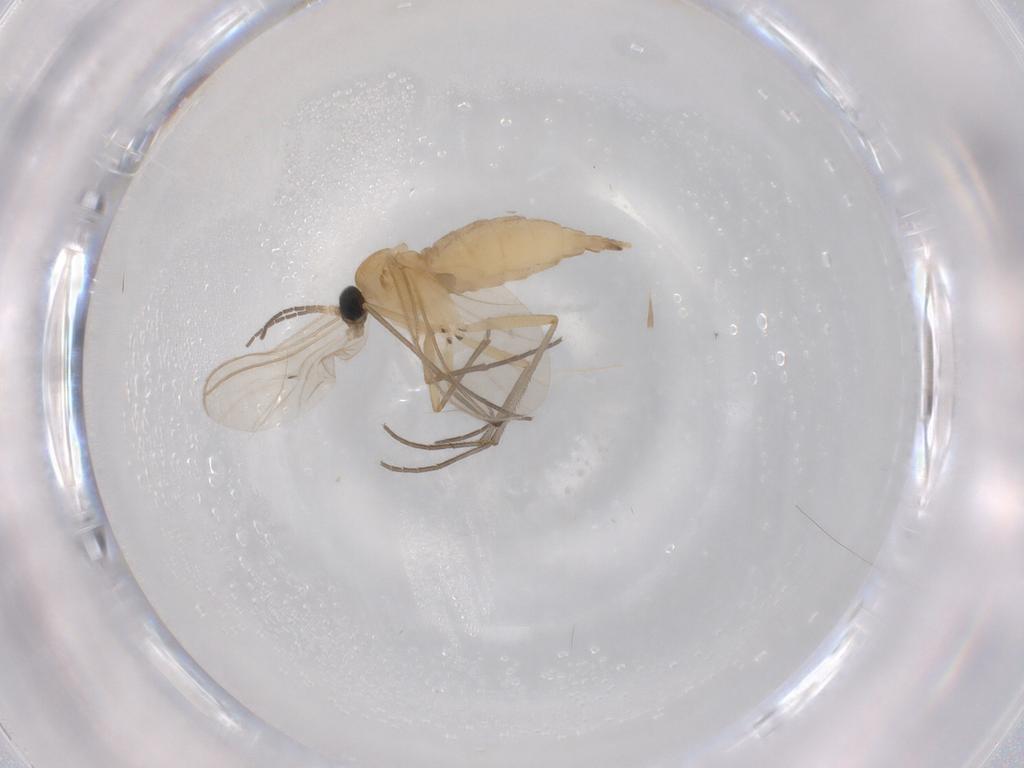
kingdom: Animalia
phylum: Arthropoda
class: Insecta
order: Diptera
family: Sciaridae
